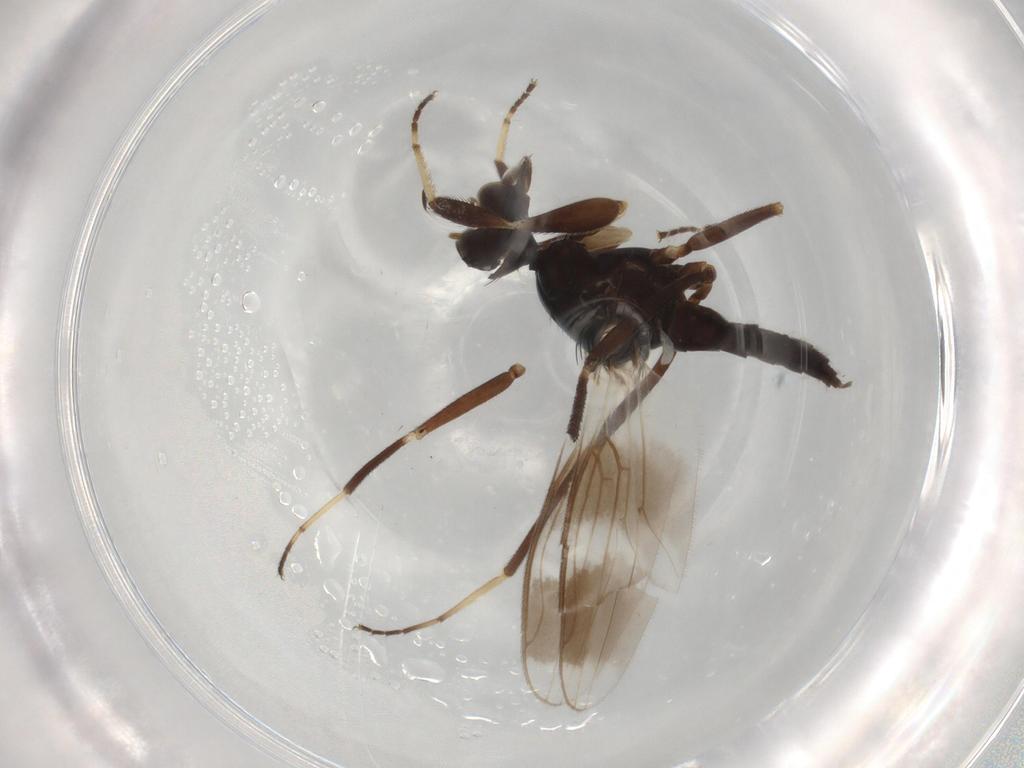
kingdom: Animalia
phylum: Arthropoda
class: Insecta
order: Diptera
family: Hybotidae
